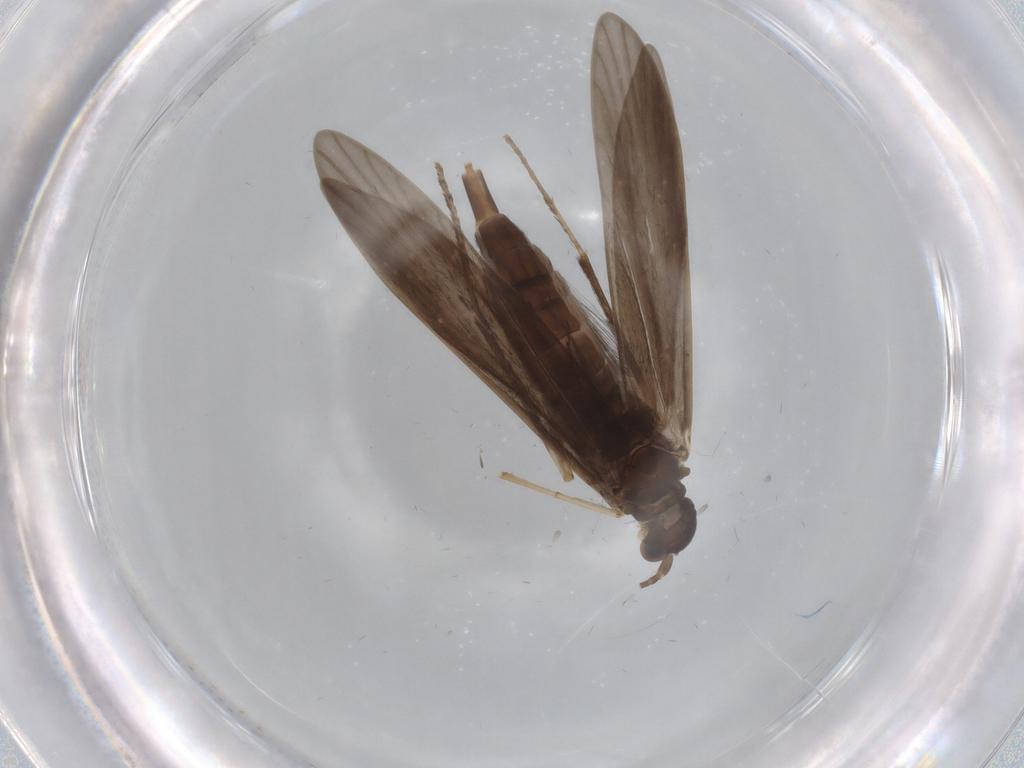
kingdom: Animalia
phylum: Arthropoda
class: Insecta
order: Trichoptera
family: Xiphocentronidae
